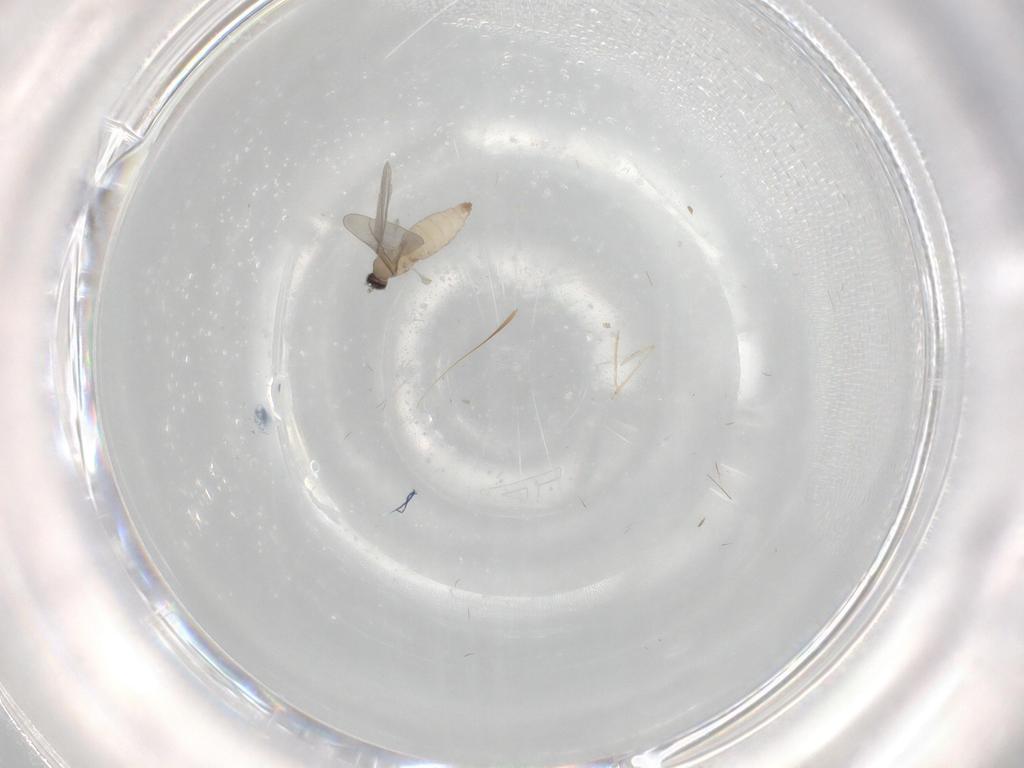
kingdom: Animalia
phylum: Arthropoda
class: Insecta
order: Diptera
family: Cecidomyiidae
